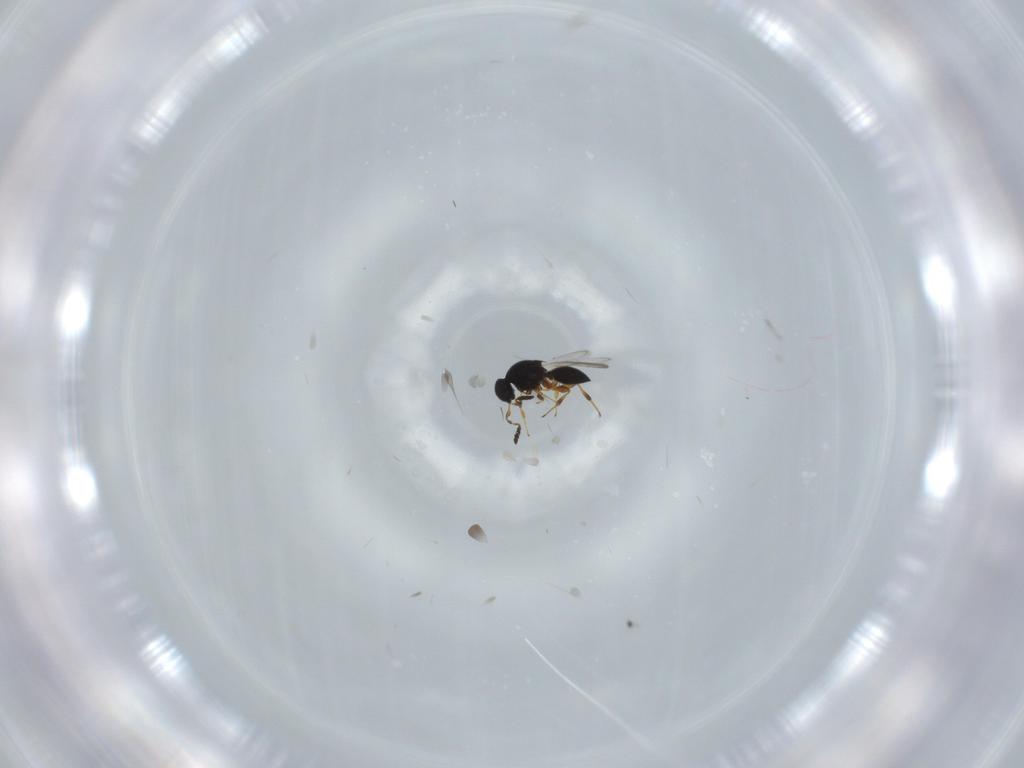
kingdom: Animalia
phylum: Arthropoda
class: Insecta
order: Hymenoptera
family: Platygastridae
